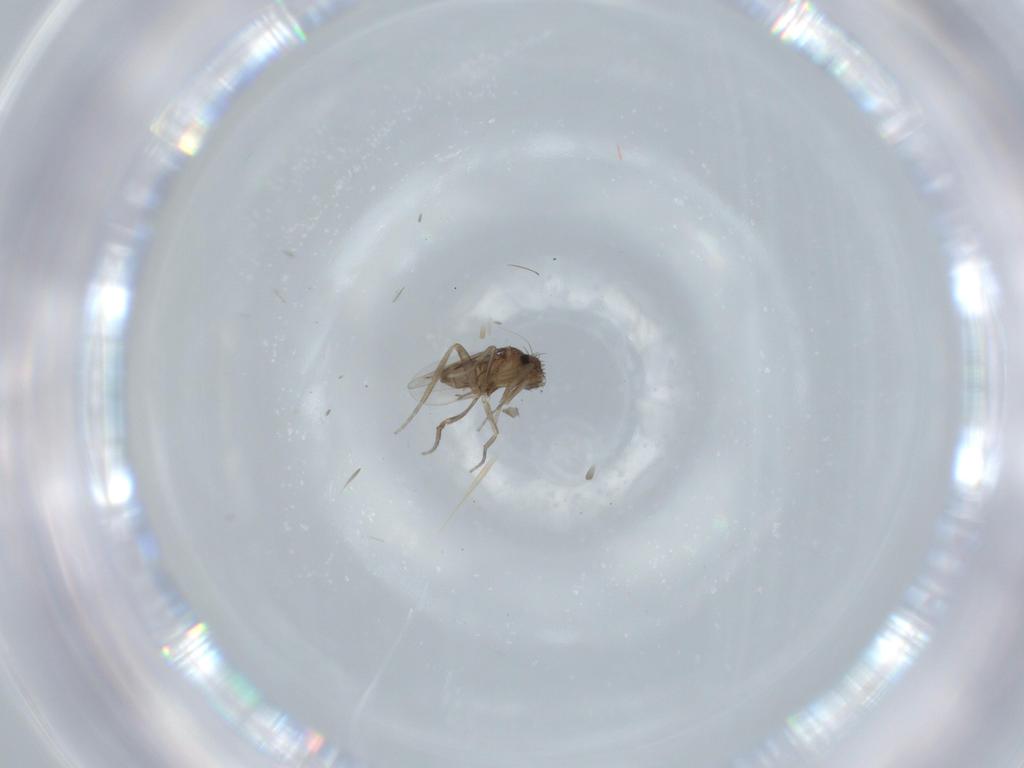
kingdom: Animalia
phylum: Arthropoda
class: Insecta
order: Diptera
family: Phoridae
